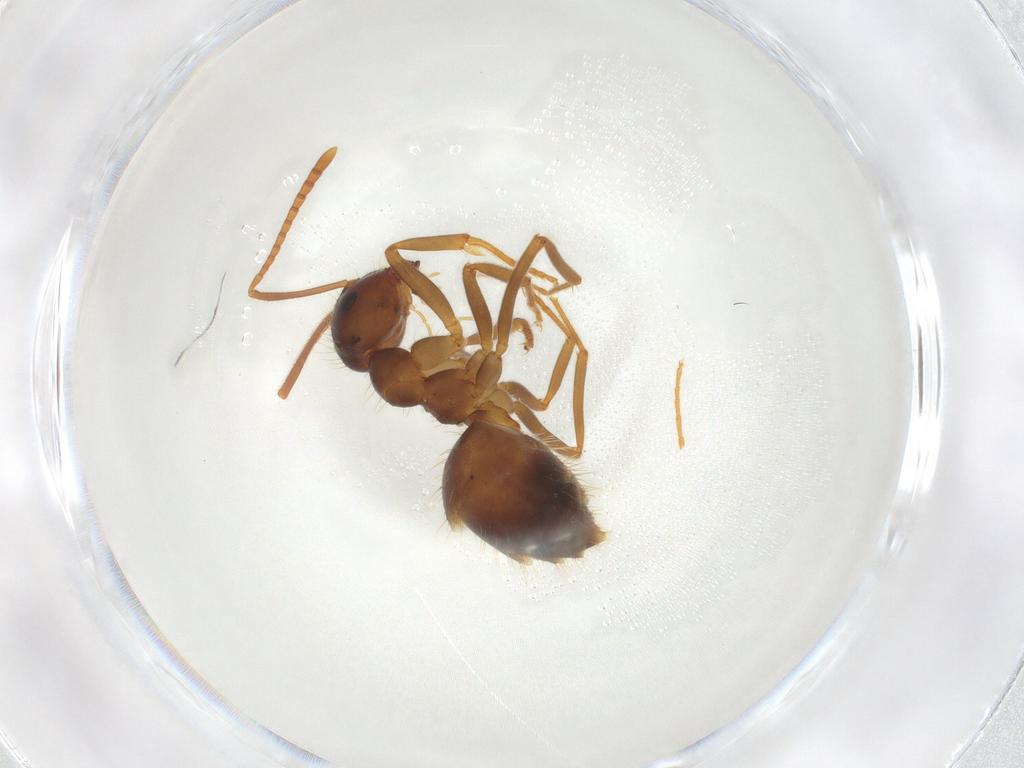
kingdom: Animalia
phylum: Arthropoda
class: Insecta
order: Hymenoptera
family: Formicidae
